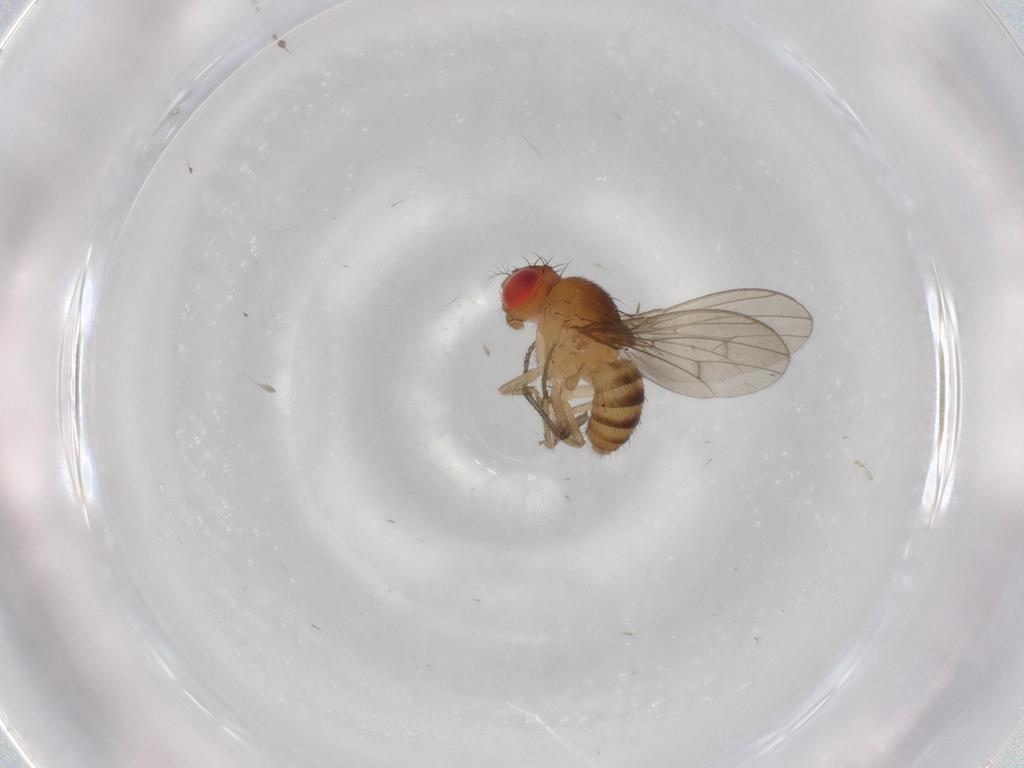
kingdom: Animalia
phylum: Arthropoda
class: Insecta
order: Diptera
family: Drosophilidae
